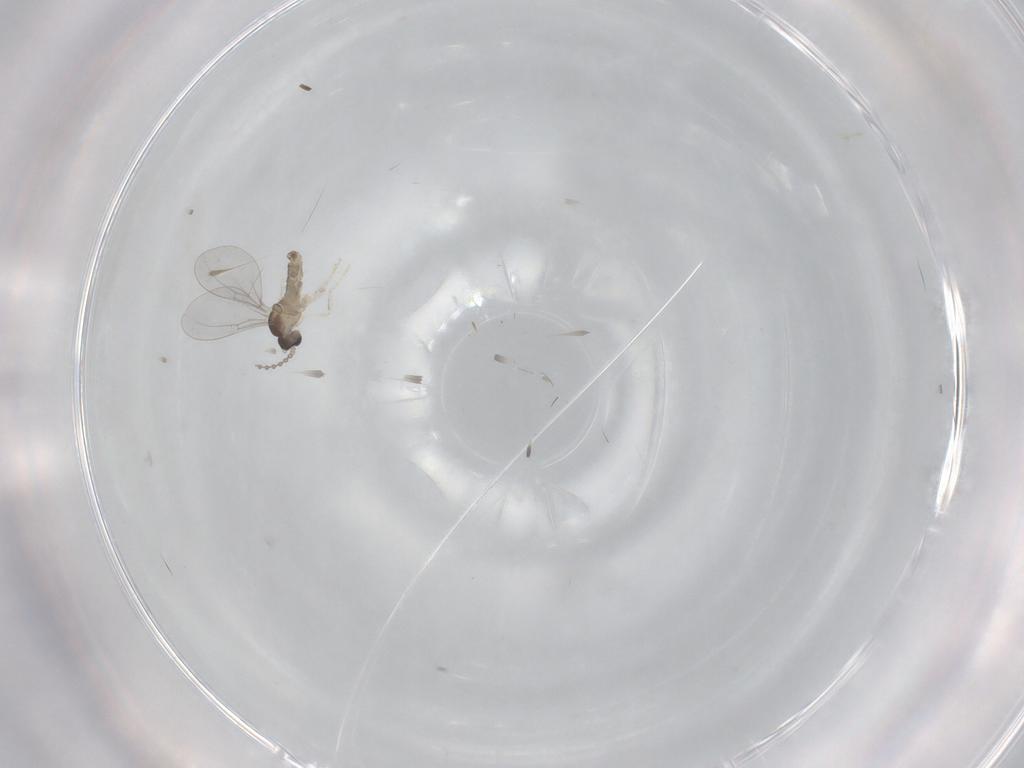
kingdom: Animalia
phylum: Arthropoda
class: Insecta
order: Diptera
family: Cecidomyiidae
